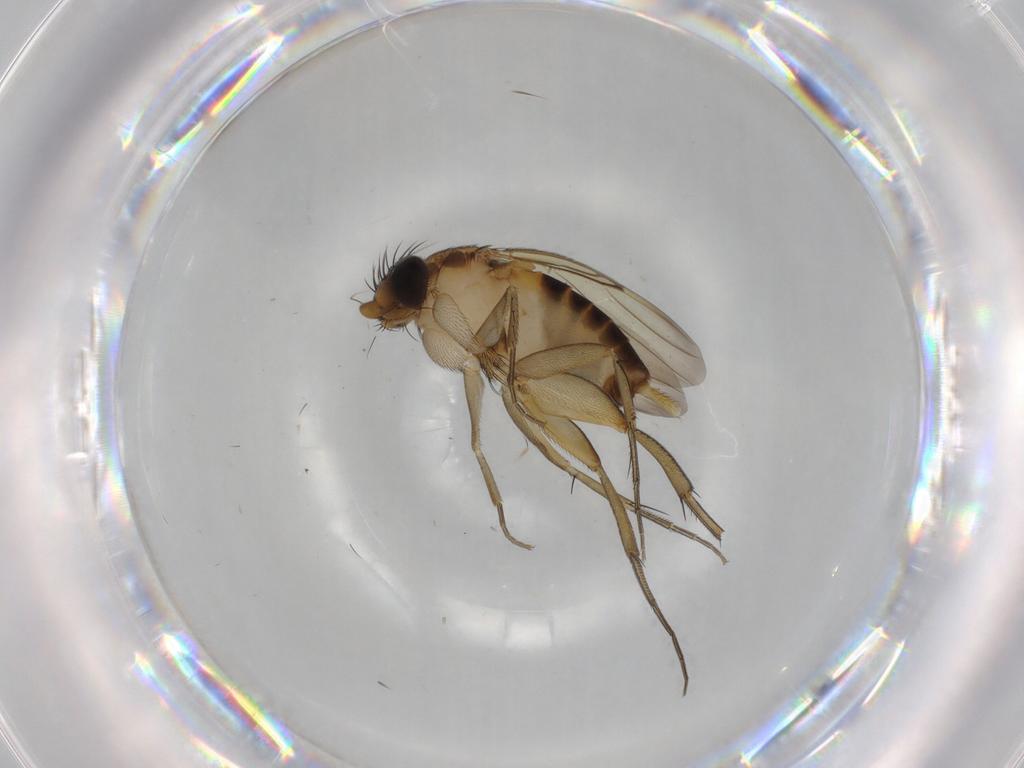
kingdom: Animalia
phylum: Arthropoda
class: Insecta
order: Diptera
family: Phoridae
